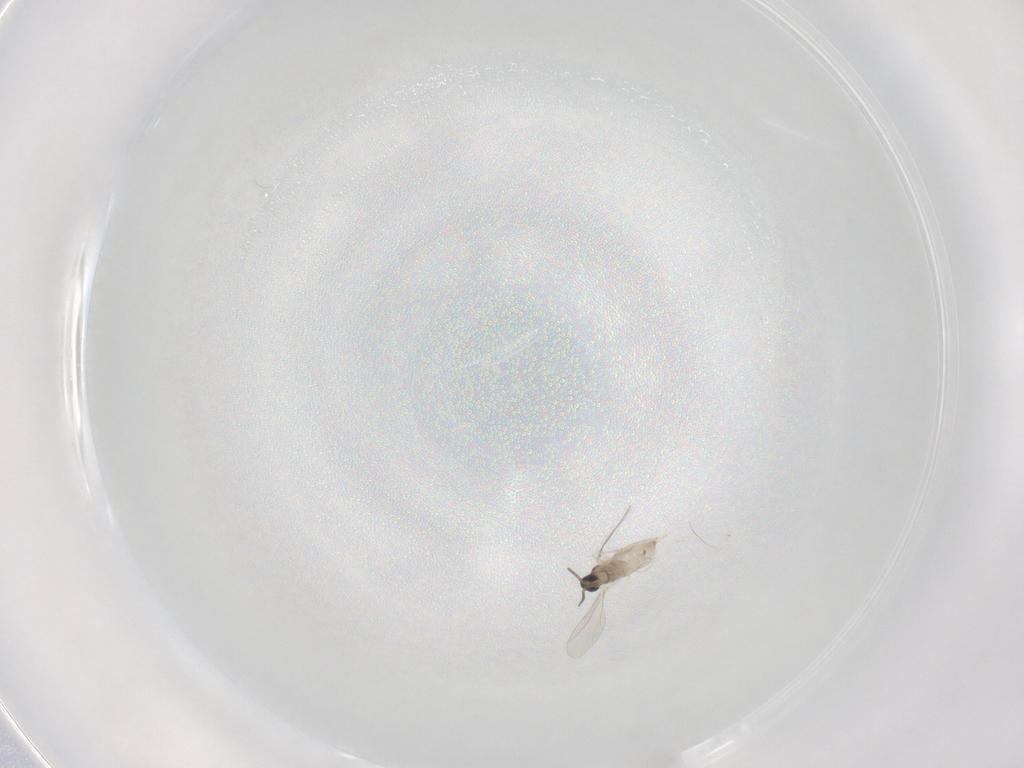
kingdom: Animalia
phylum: Arthropoda
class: Insecta
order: Diptera
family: Cecidomyiidae
